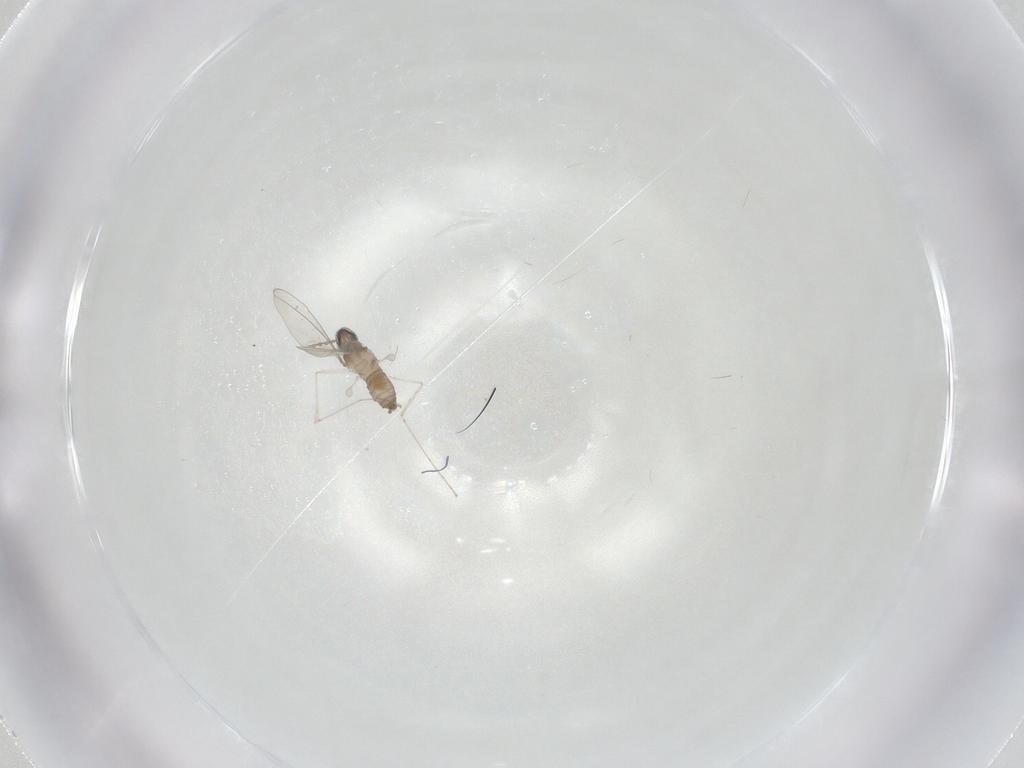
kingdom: Animalia
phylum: Arthropoda
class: Insecta
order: Diptera
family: Cecidomyiidae
